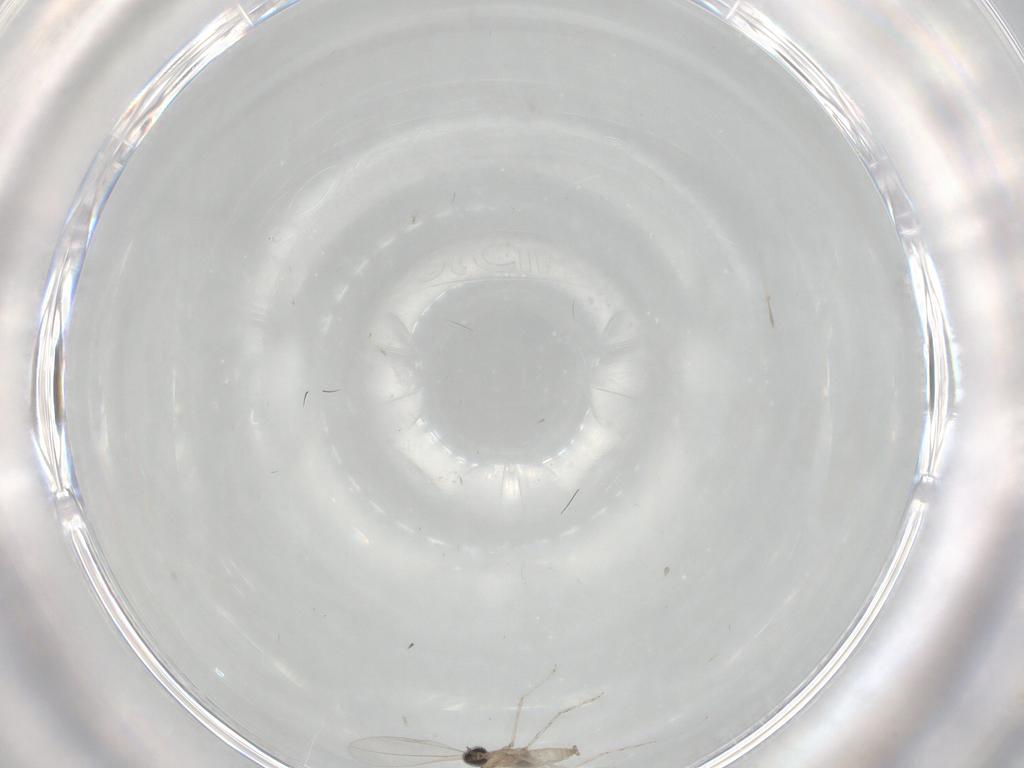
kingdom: Animalia
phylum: Arthropoda
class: Insecta
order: Diptera
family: Cecidomyiidae
